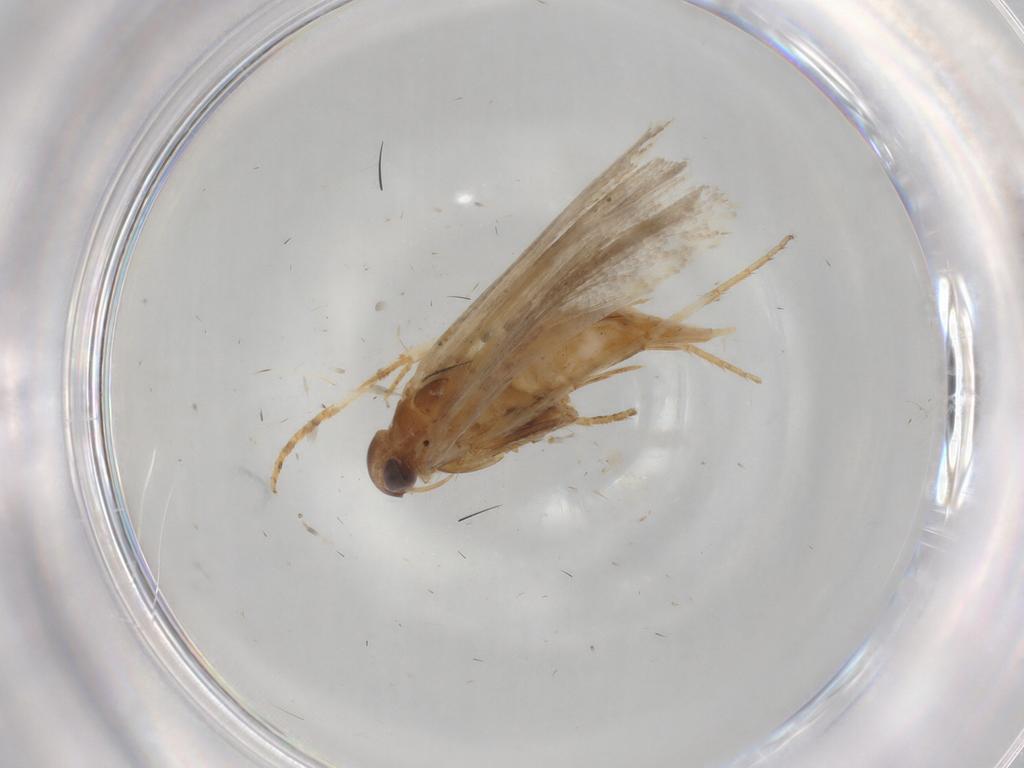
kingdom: Animalia
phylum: Arthropoda
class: Insecta
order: Lepidoptera
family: Gelechiidae
